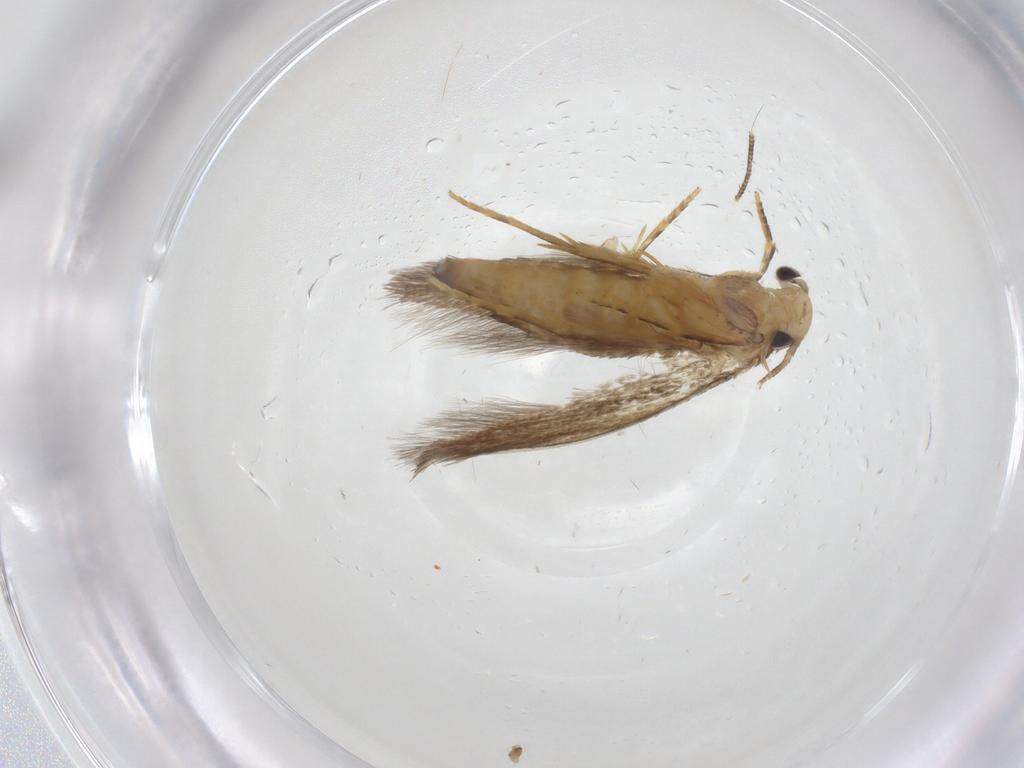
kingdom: Animalia
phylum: Arthropoda
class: Insecta
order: Lepidoptera
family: Tineidae
